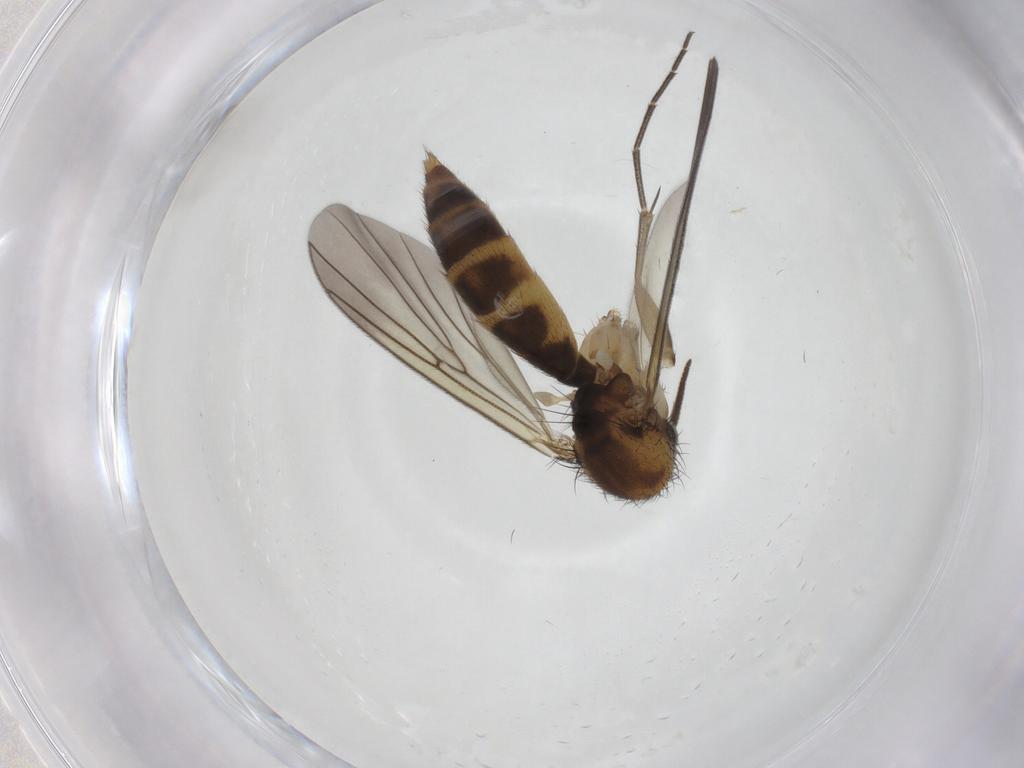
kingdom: Animalia
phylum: Arthropoda
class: Insecta
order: Diptera
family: Mycetophilidae
